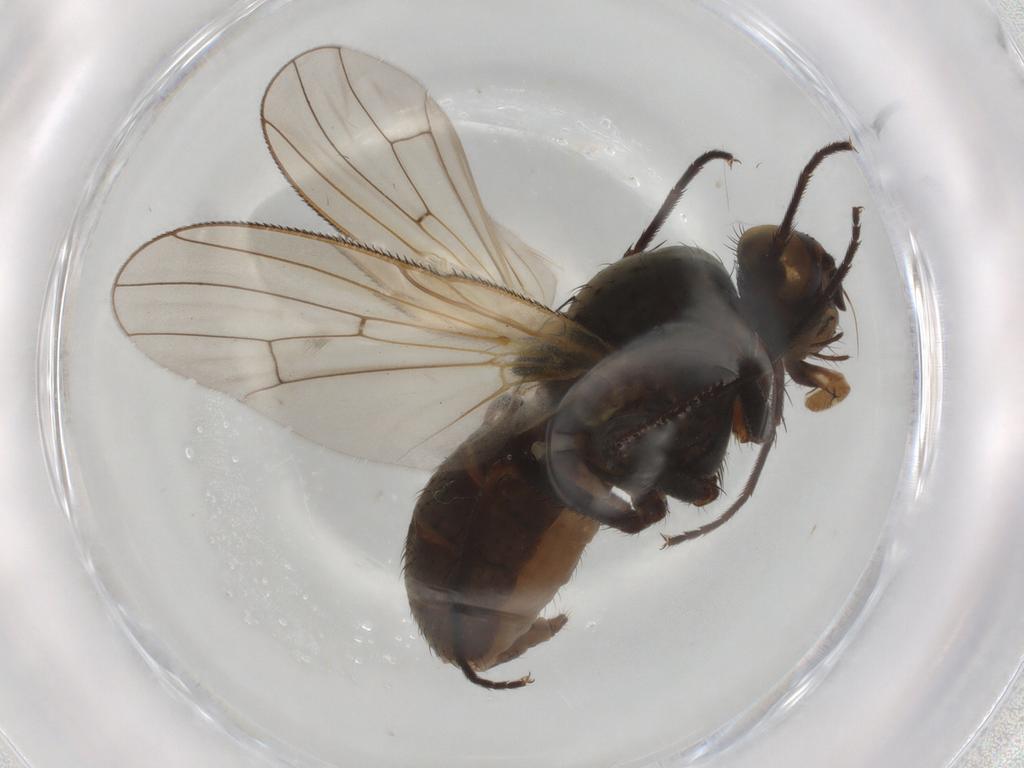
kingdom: Animalia
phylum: Arthropoda
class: Insecta
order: Diptera
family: Anthomyiidae
